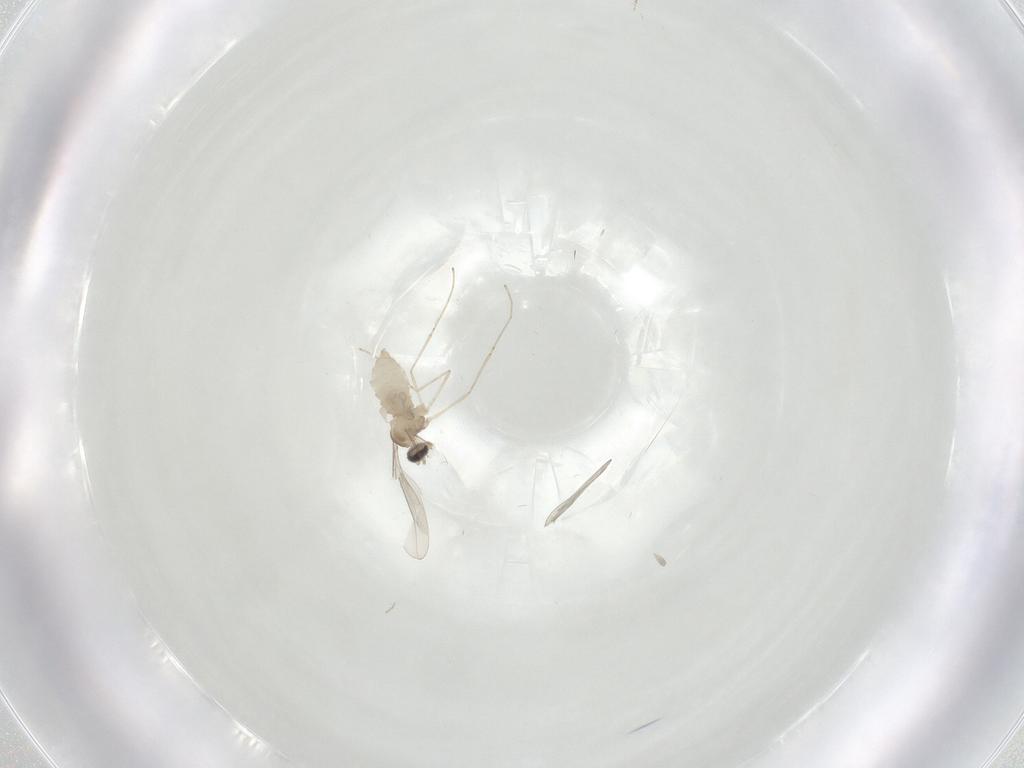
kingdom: Animalia
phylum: Arthropoda
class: Insecta
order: Diptera
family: Cecidomyiidae
